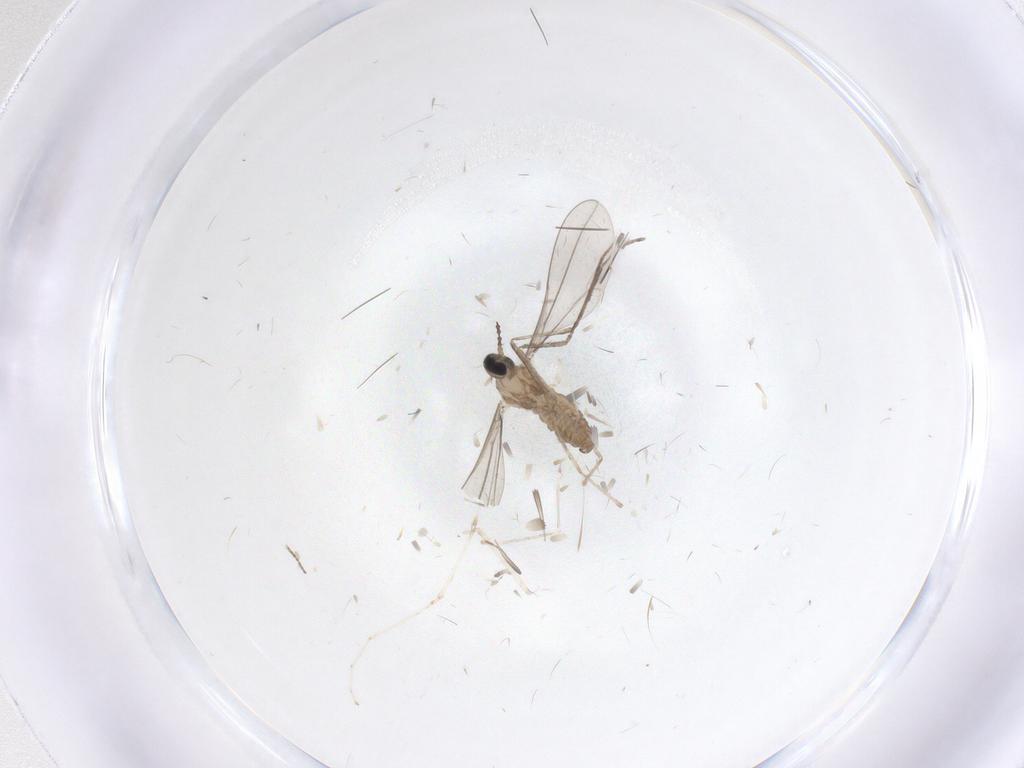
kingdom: Animalia
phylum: Arthropoda
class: Insecta
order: Diptera
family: Cecidomyiidae
